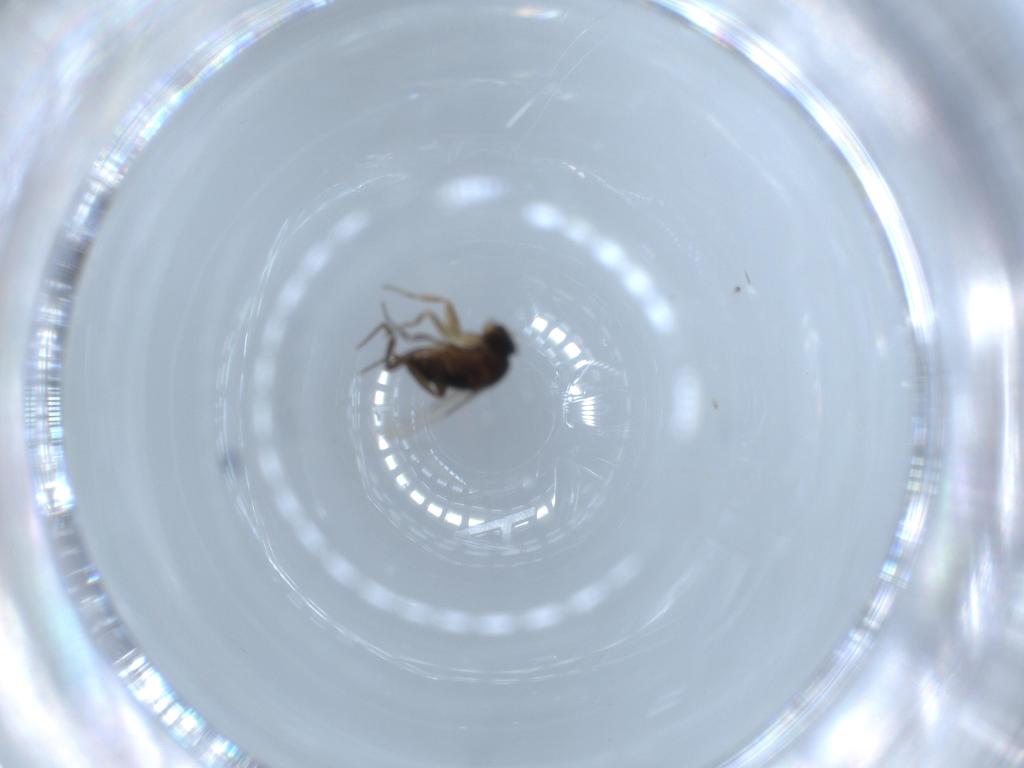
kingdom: Animalia
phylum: Arthropoda
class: Insecta
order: Diptera
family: Phoridae
